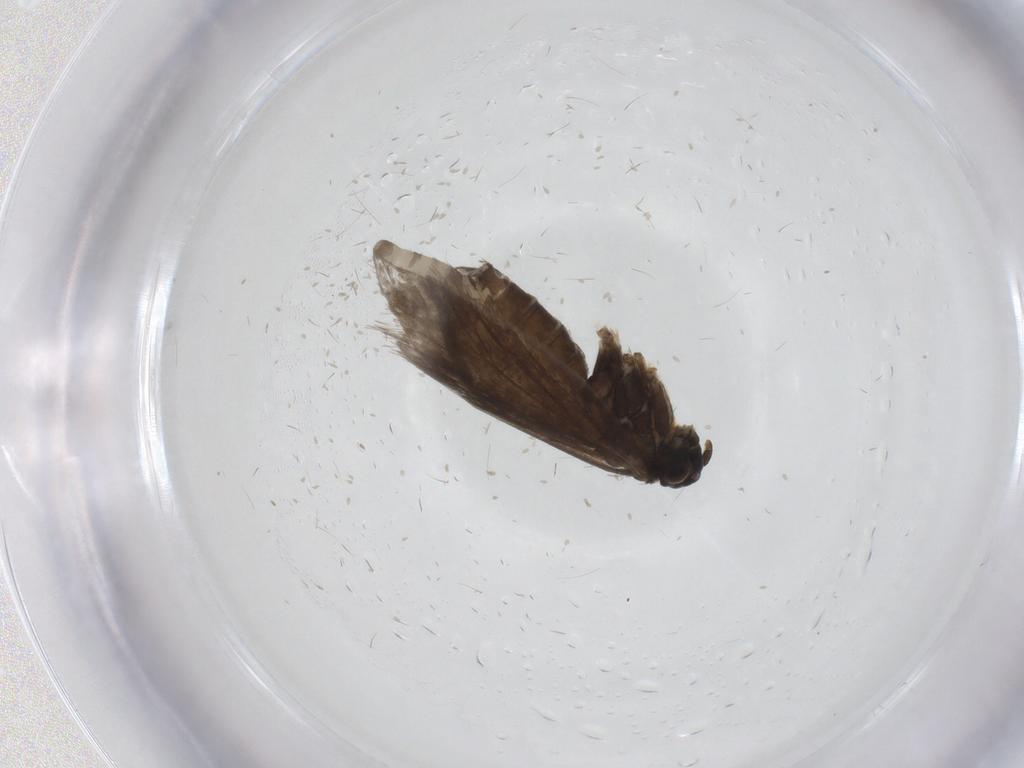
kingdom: Animalia
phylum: Arthropoda
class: Insecta
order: Lepidoptera
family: Micropterigidae
